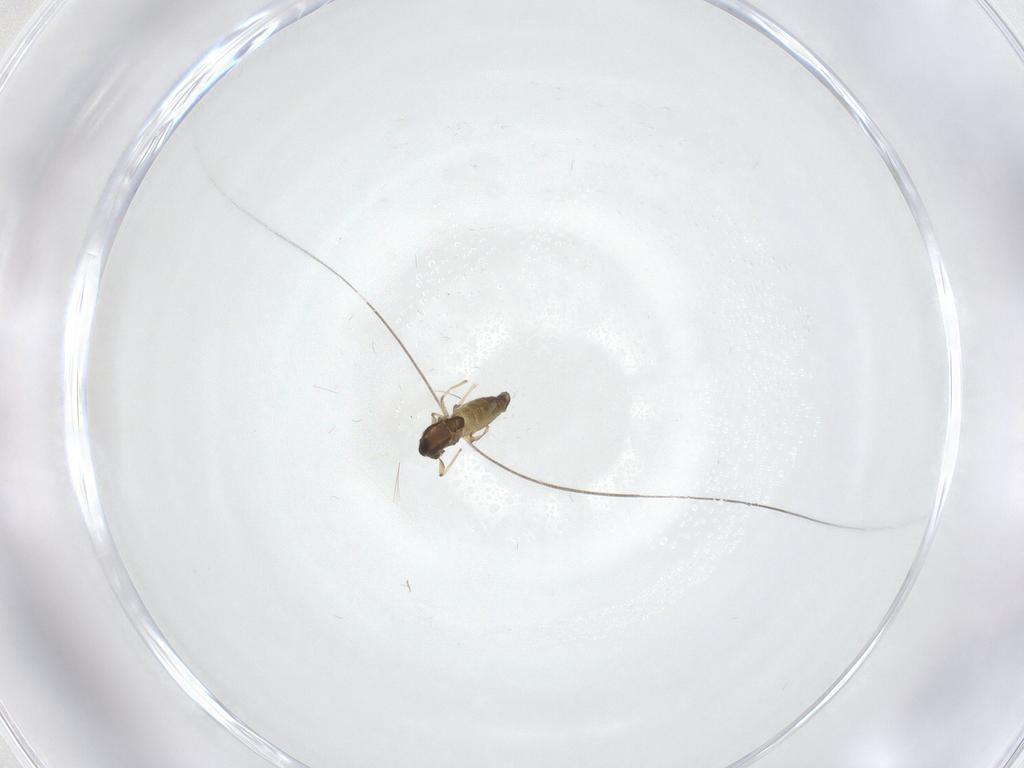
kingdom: Animalia
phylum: Arthropoda
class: Insecta
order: Diptera
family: Chironomidae
